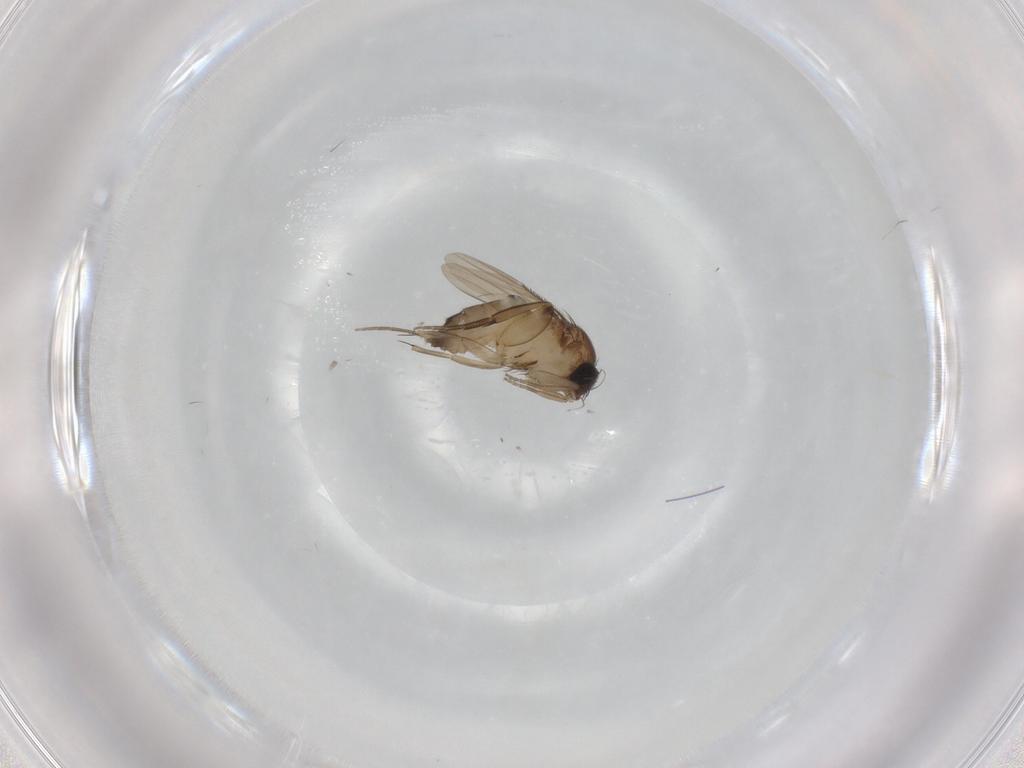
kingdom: Animalia
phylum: Arthropoda
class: Insecta
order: Diptera
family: Phoridae
